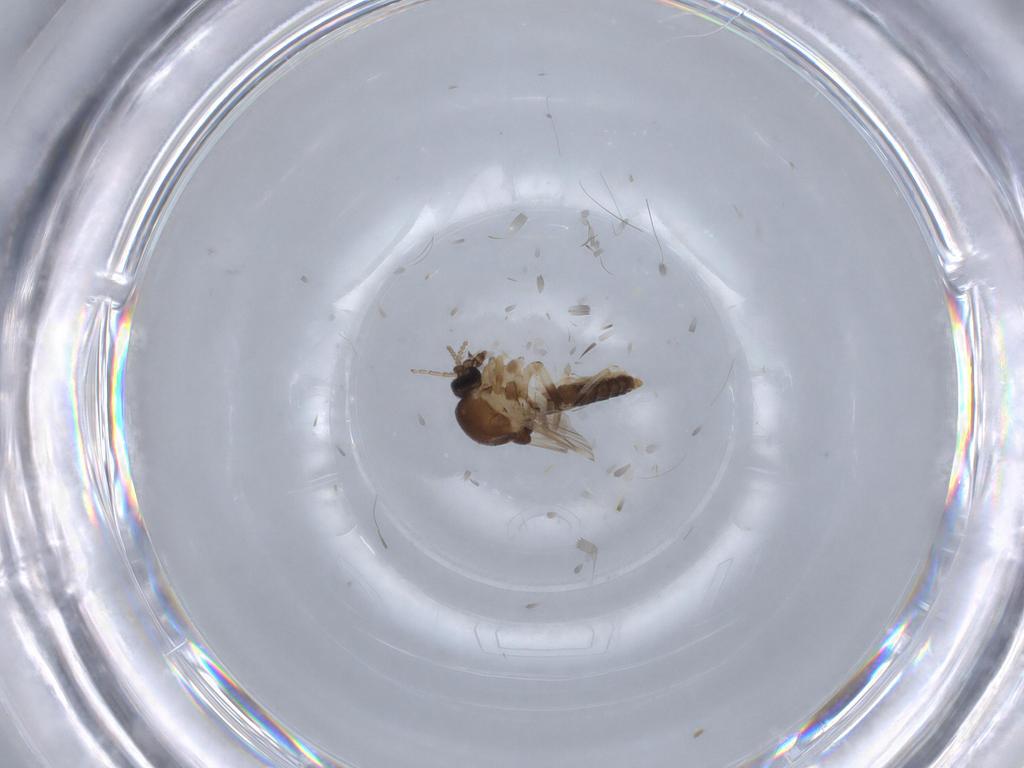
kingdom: Animalia
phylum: Arthropoda
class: Insecta
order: Diptera
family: Ceratopogonidae
